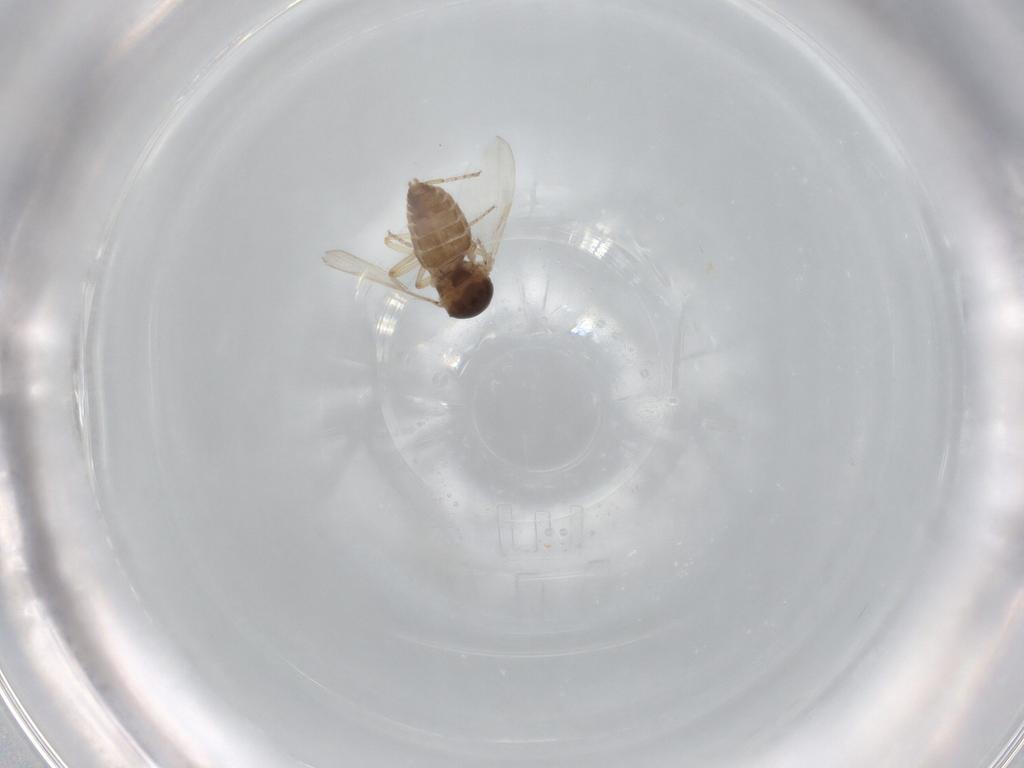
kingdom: Animalia
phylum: Arthropoda
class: Insecta
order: Diptera
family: Ceratopogonidae
